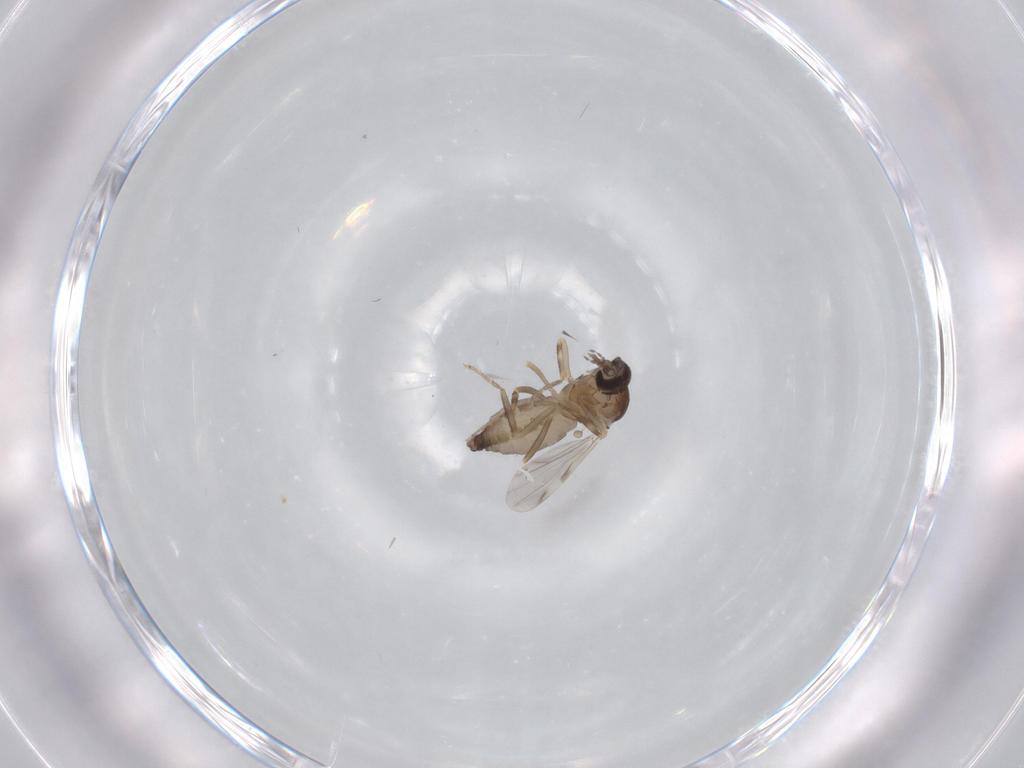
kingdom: Animalia
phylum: Arthropoda
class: Insecta
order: Diptera
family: Ceratopogonidae
